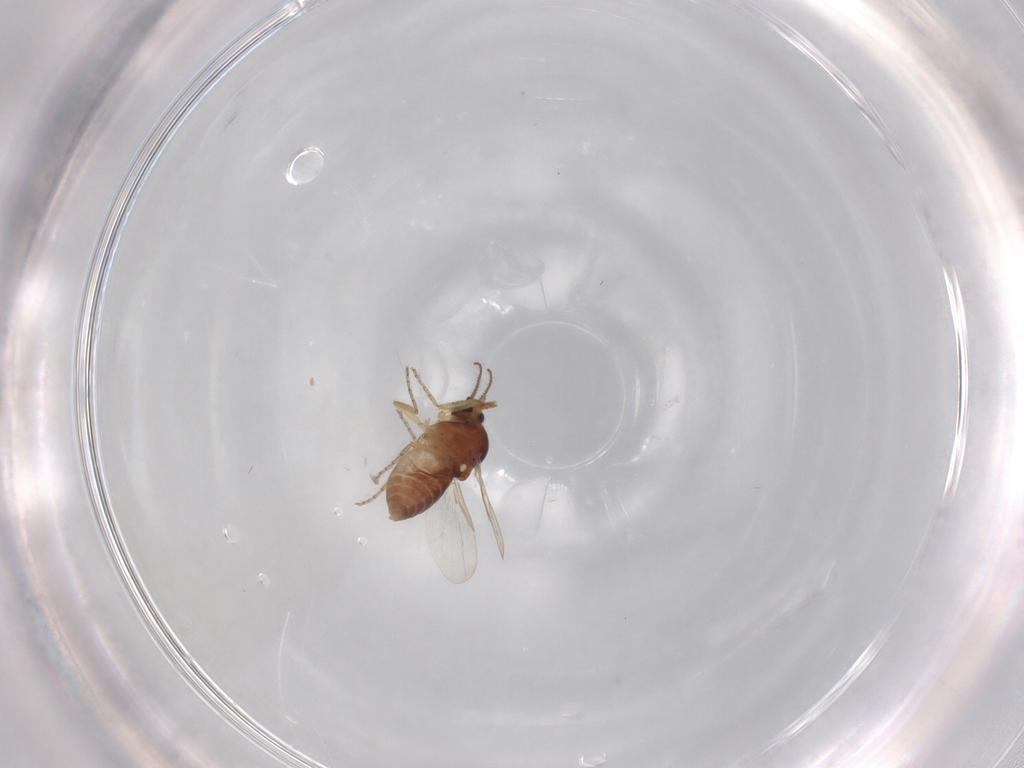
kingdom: Animalia
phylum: Arthropoda
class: Insecta
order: Diptera
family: Ceratopogonidae
